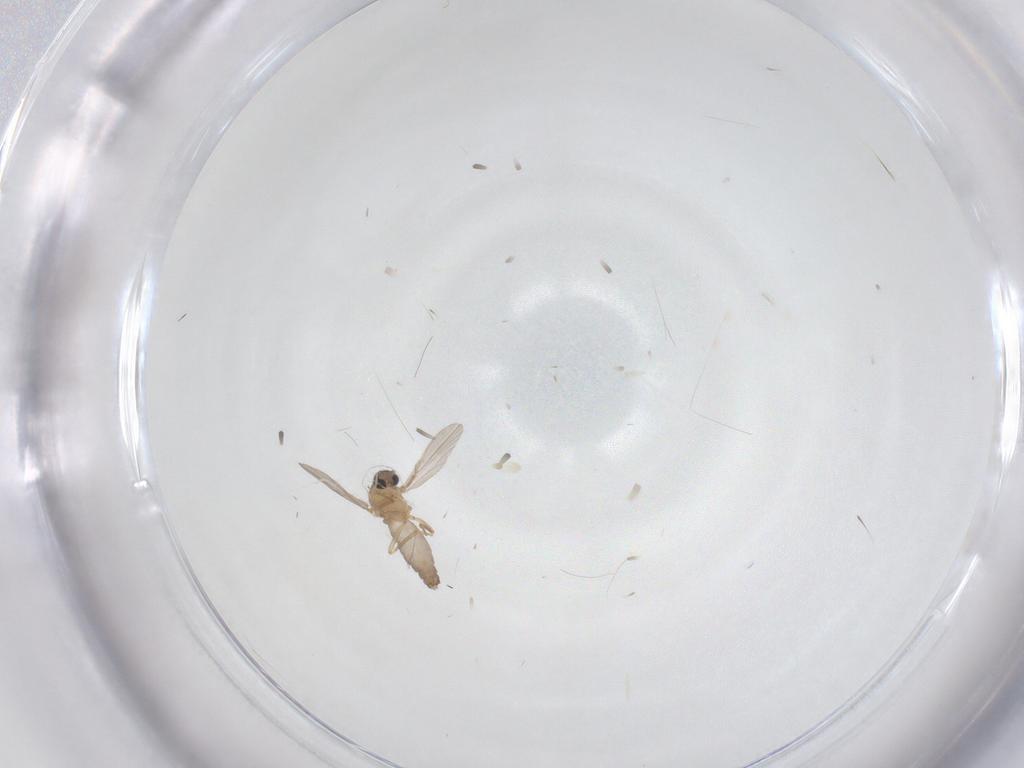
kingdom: Animalia
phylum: Arthropoda
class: Insecta
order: Diptera
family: Ceratopogonidae
